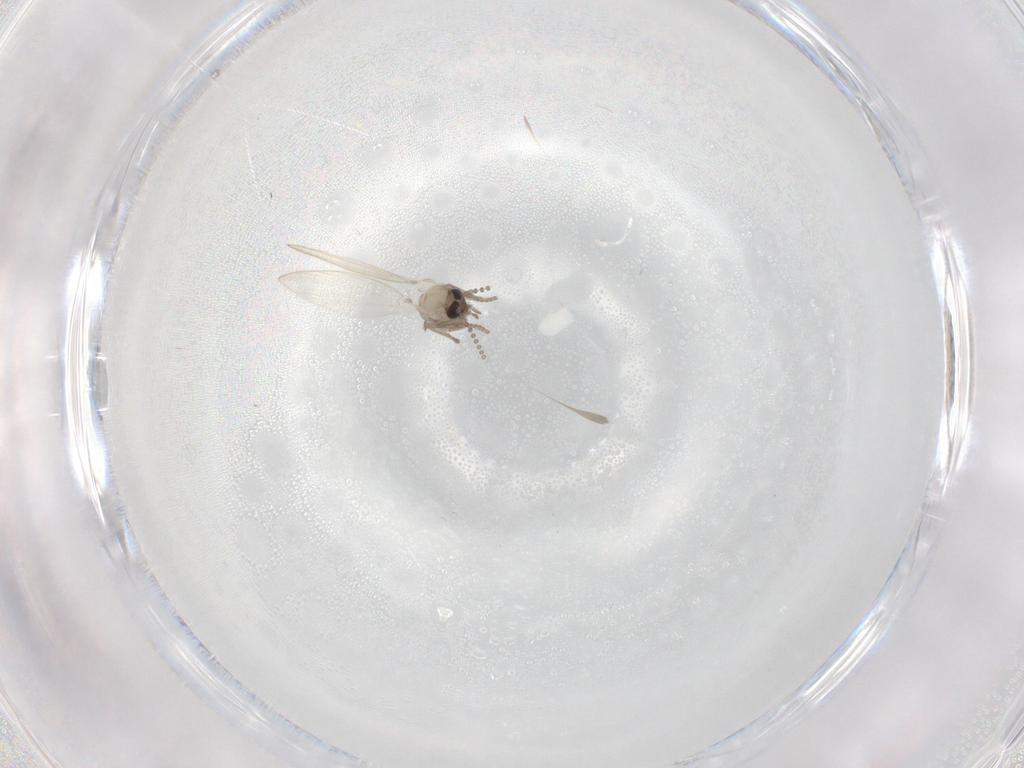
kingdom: Animalia
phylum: Arthropoda
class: Insecta
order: Diptera
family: Psychodidae
